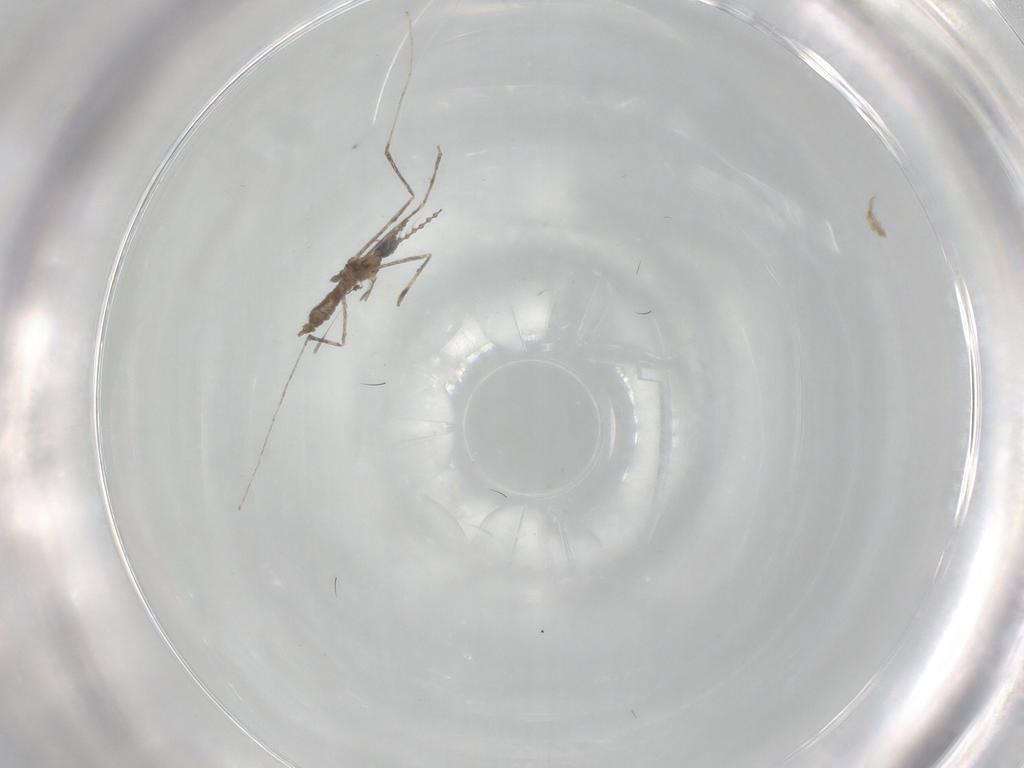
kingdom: Animalia
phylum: Arthropoda
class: Insecta
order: Diptera
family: Cecidomyiidae
